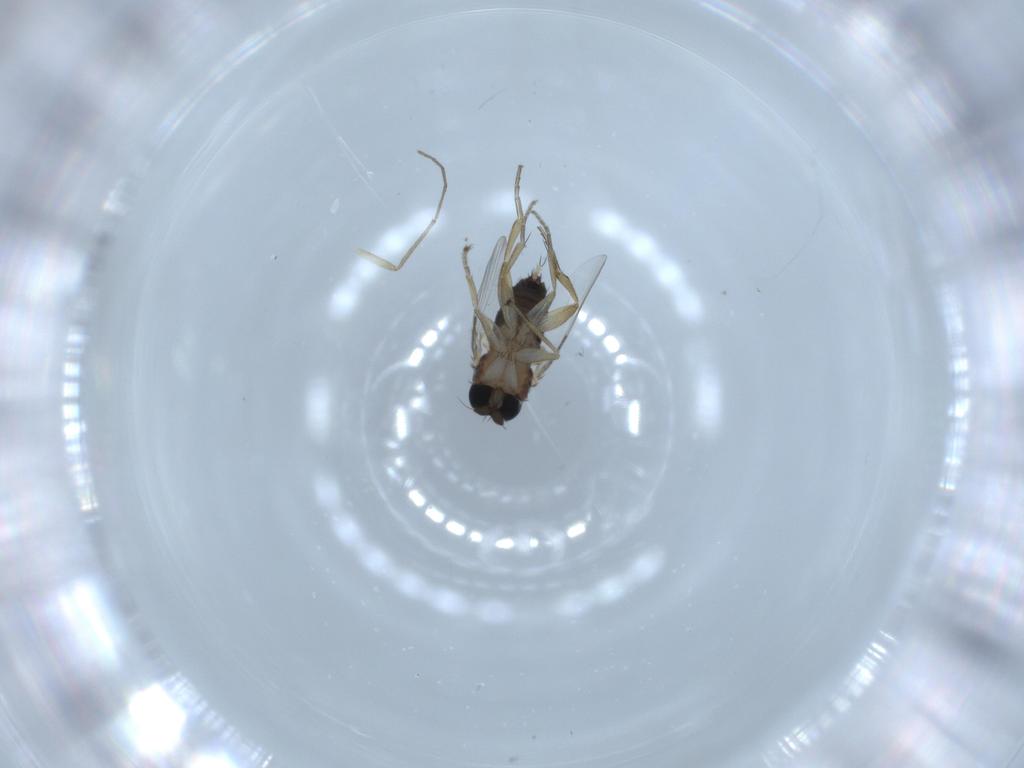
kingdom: Animalia
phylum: Arthropoda
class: Insecta
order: Diptera
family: Phoridae
